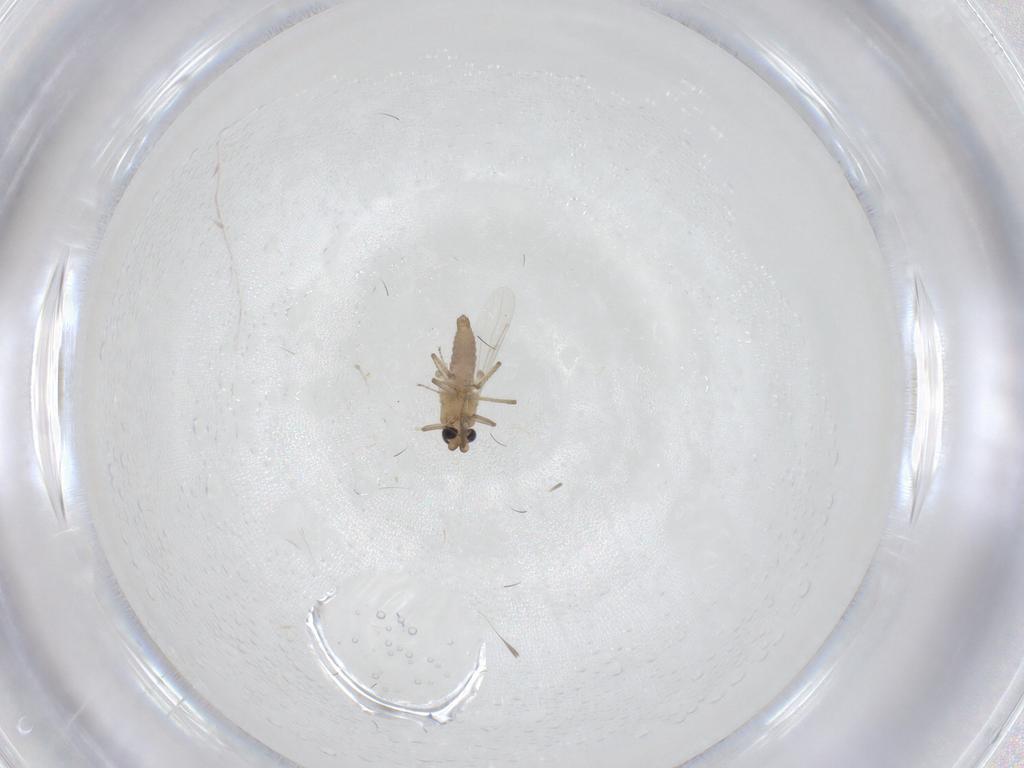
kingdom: Animalia
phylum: Arthropoda
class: Insecta
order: Diptera
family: Ceratopogonidae
